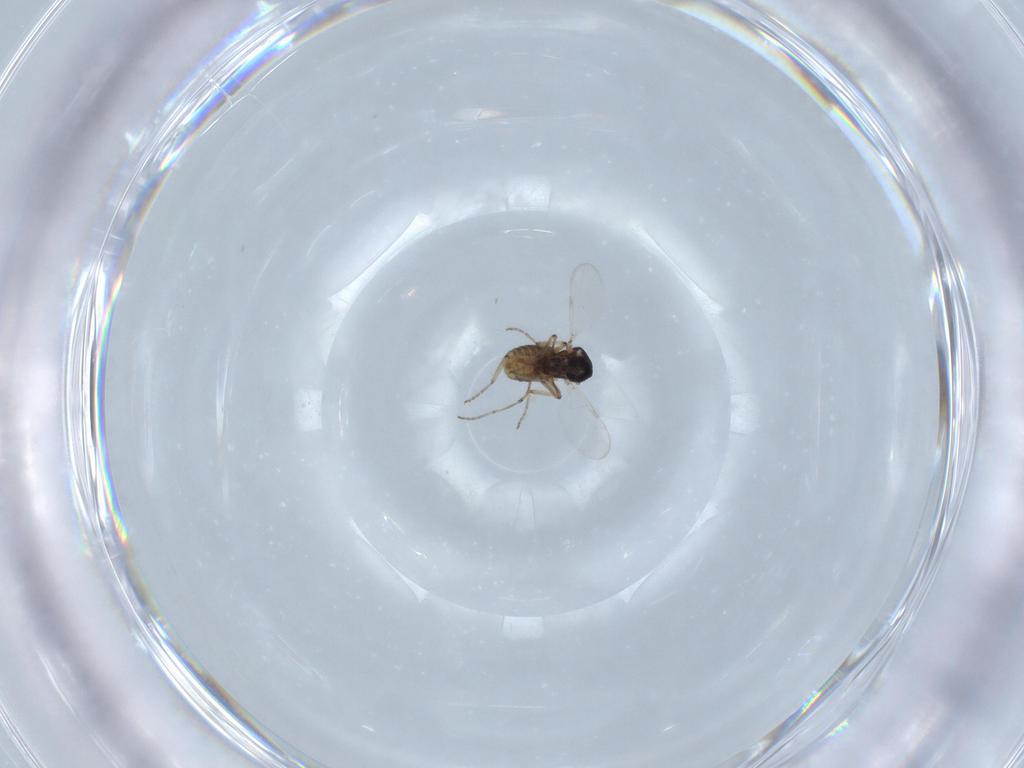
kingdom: Animalia
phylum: Arthropoda
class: Insecta
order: Diptera
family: Ceratopogonidae
